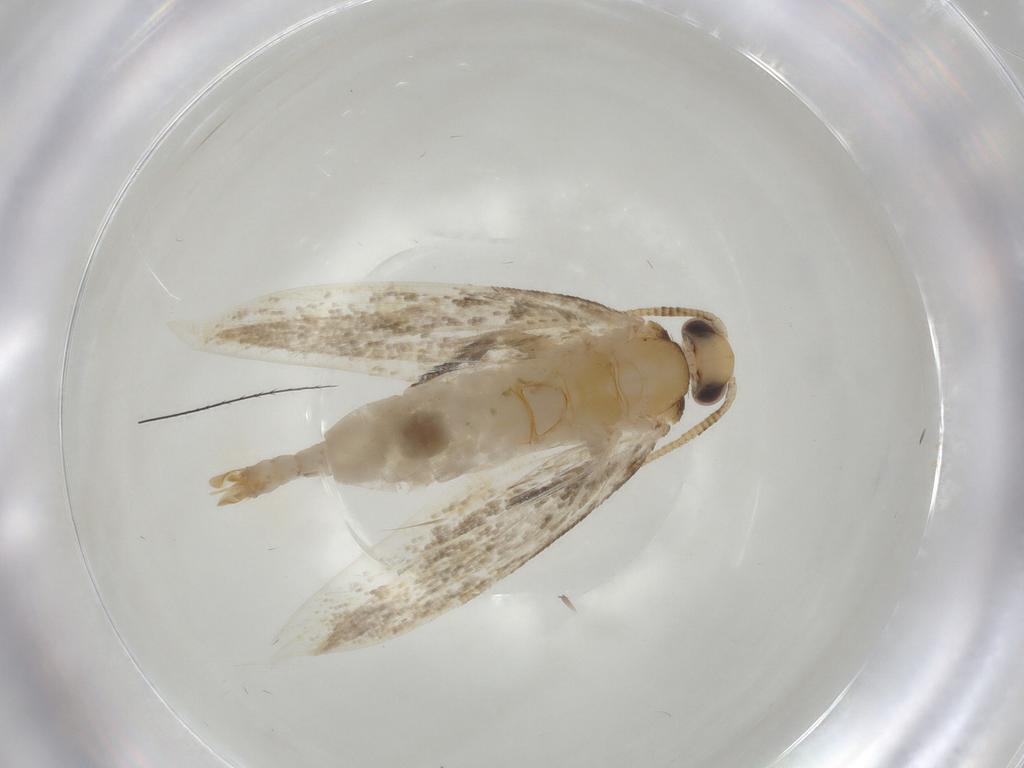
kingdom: Animalia
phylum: Arthropoda
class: Insecta
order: Lepidoptera
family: Tineidae
